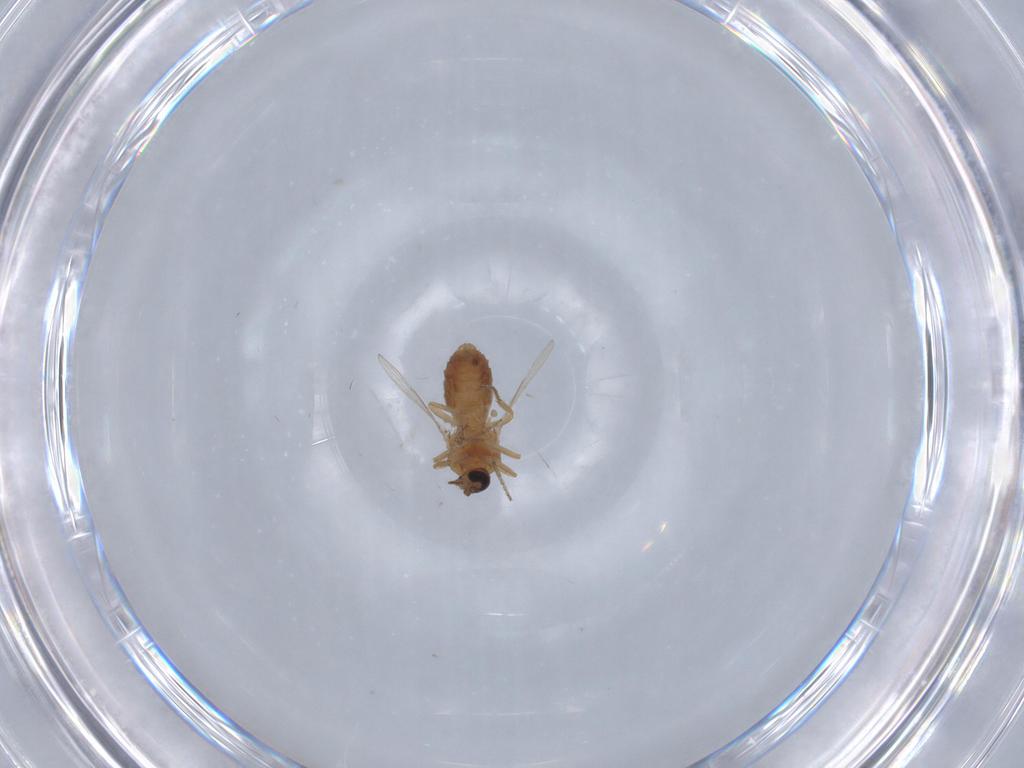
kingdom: Animalia
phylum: Arthropoda
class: Insecta
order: Diptera
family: Ceratopogonidae
